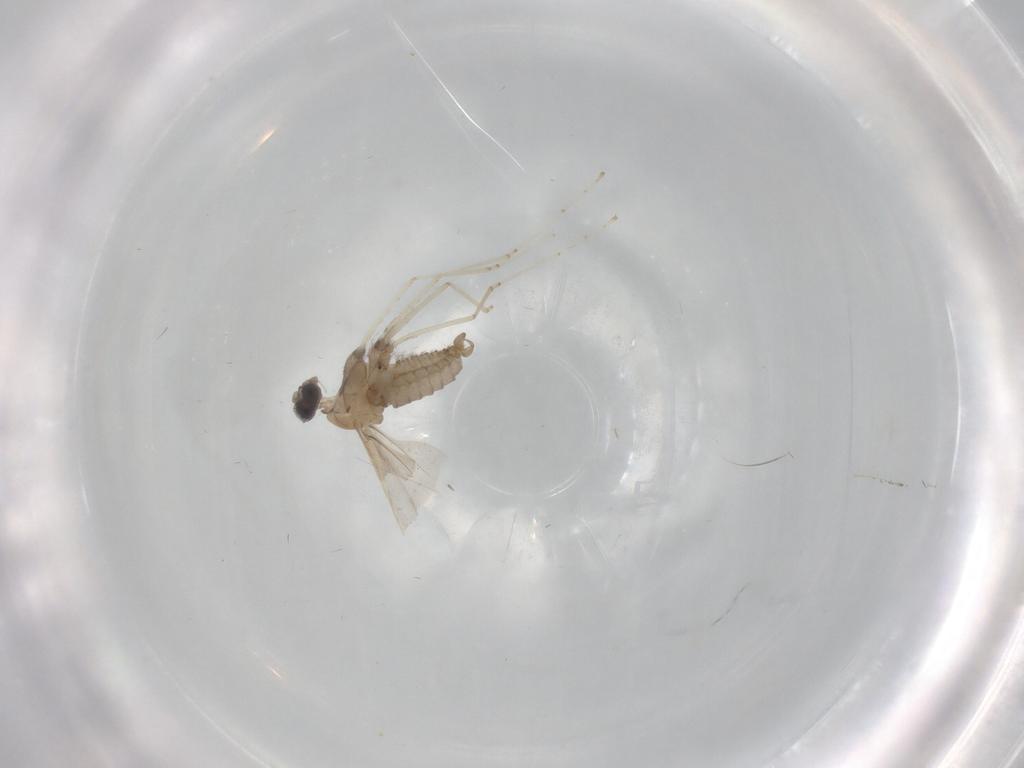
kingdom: Animalia
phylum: Arthropoda
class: Insecta
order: Diptera
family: Cecidomyiidae
